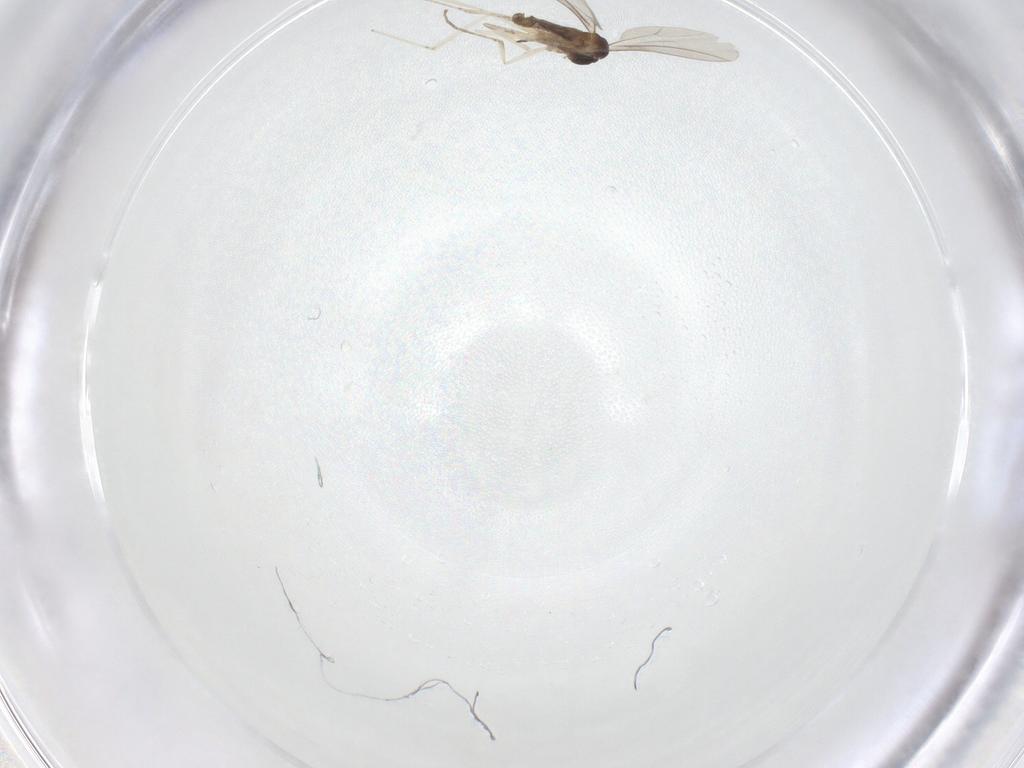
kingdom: Animalia
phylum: Arthropoda
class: Insecta
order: Diptera
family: Cecidomyiidae
